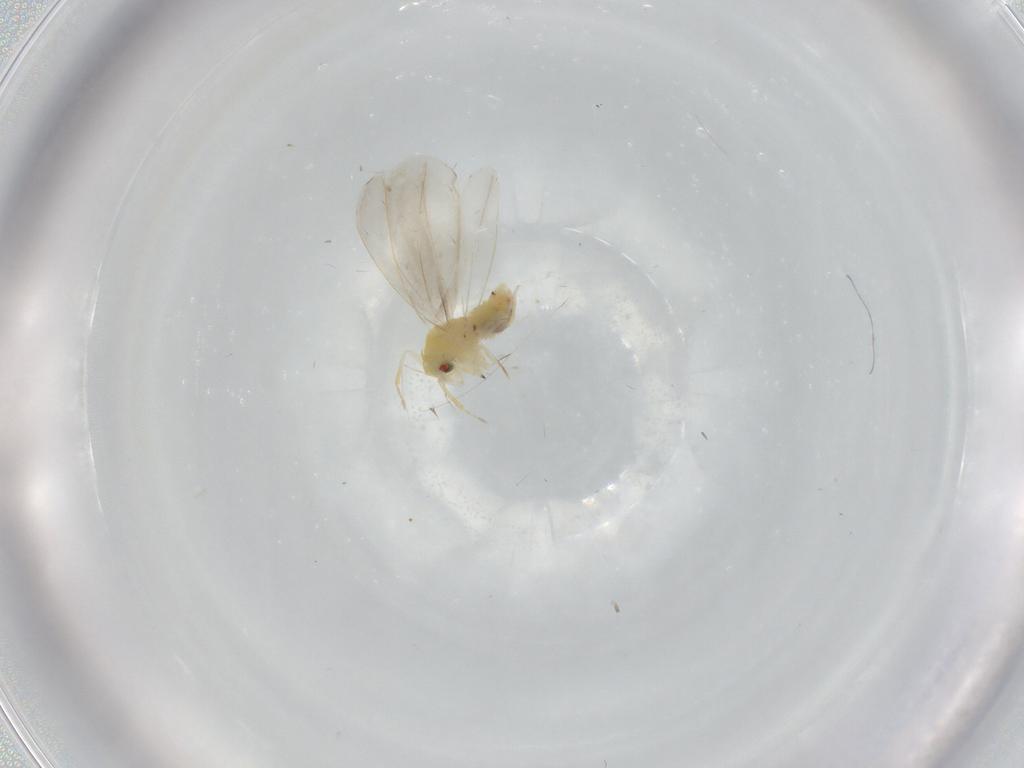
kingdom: Animalia
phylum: Arthropoda
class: Insecta
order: Hemiptera
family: Aleyrodidae
